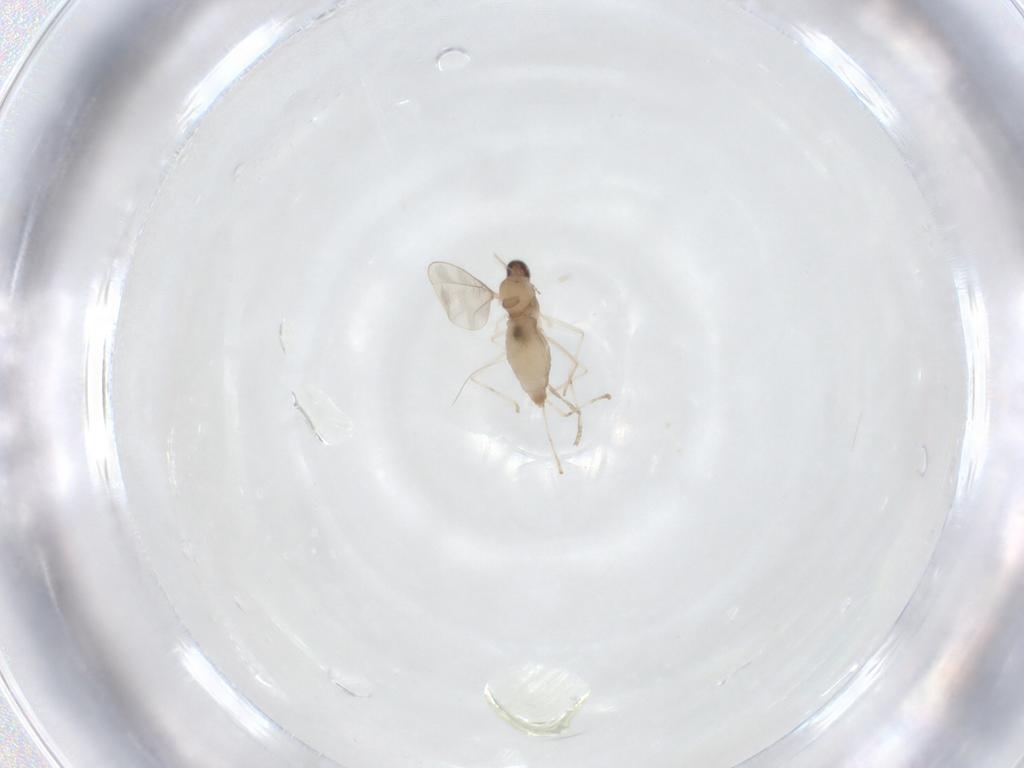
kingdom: Animalia
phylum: Arthropoda
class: Insecta
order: Diptera
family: Cecidomyiidae
